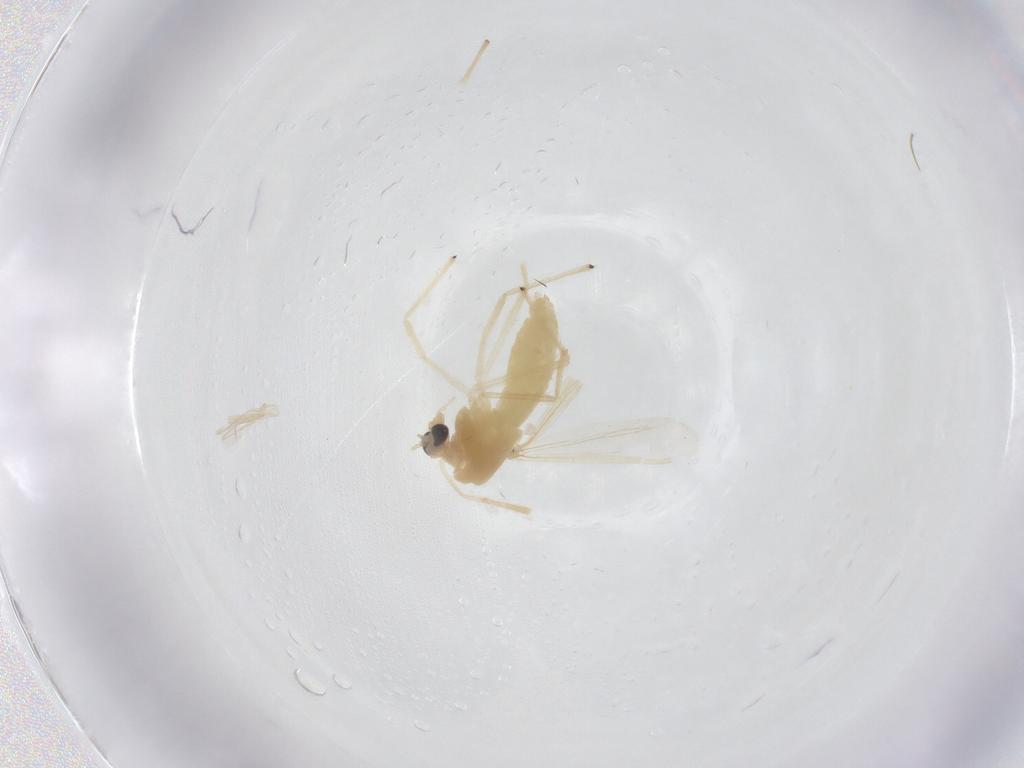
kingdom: Animalia
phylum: Arthropoda
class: Insecta
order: Diptera
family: Chironomidae
